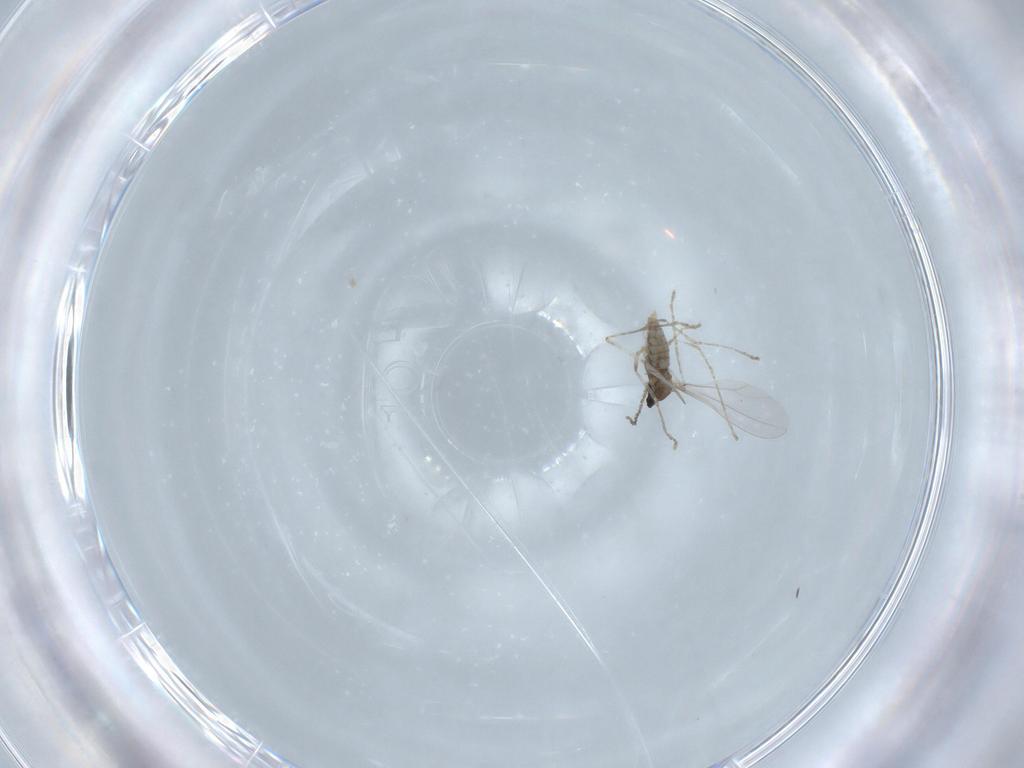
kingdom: Animalia
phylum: Arthropoda
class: Insecta
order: Diptera
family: Cecidomyiidae
